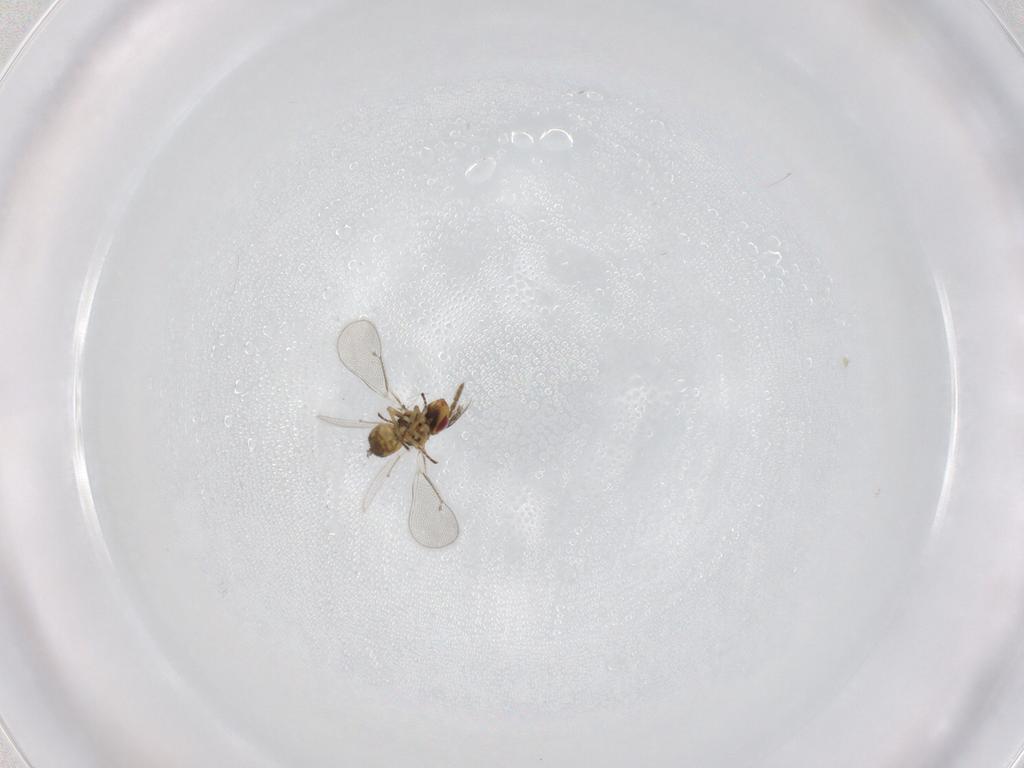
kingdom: Animalia
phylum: Arthropoda
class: Insecta
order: Hymenoptera
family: Eulophidae
